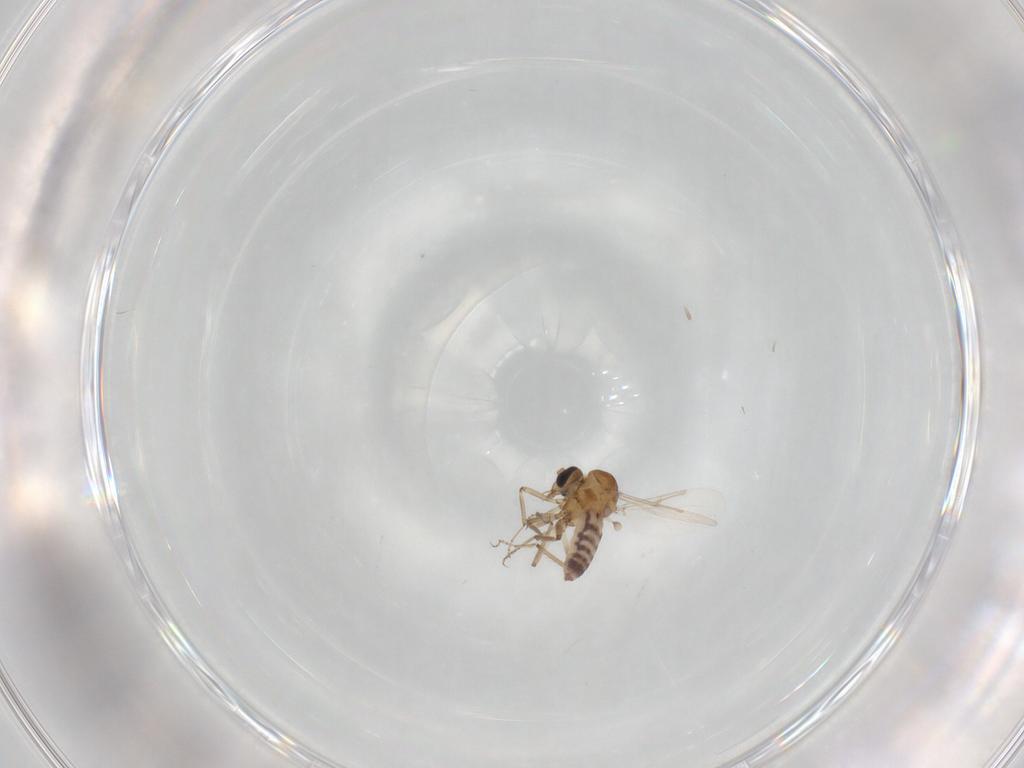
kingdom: Animalia
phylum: Arthropoda
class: Insecta
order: Diptera
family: Ceratopogonidae
